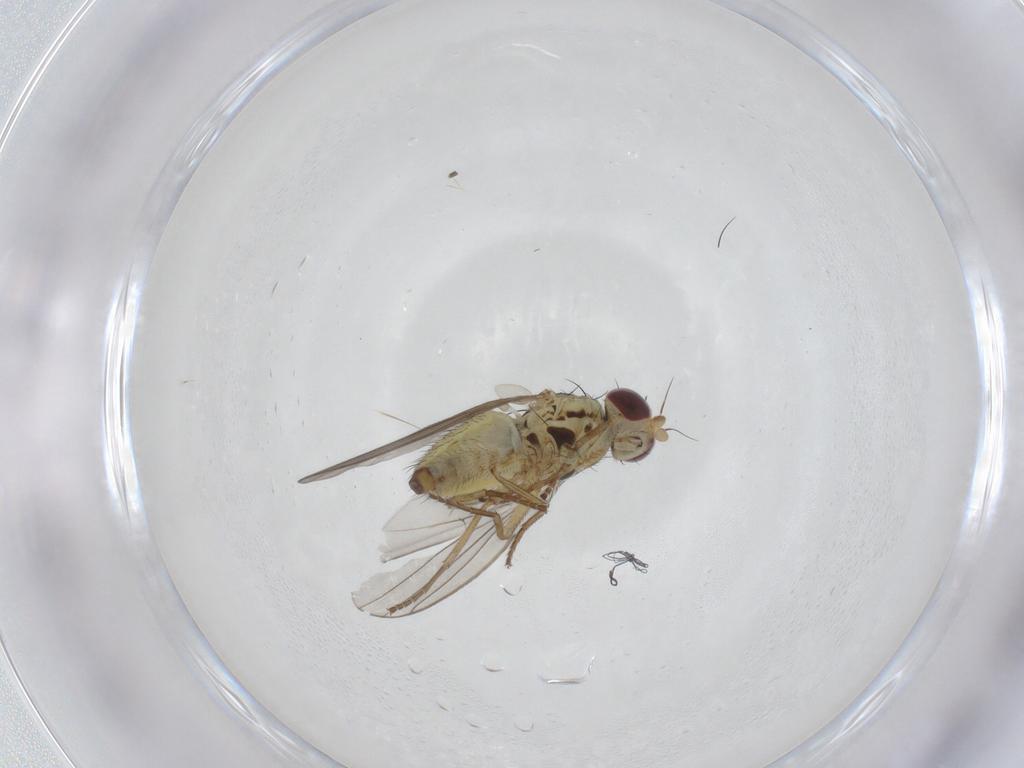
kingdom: Animalia
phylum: Arthropoda
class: Insecta
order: Diptera
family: Agromyzidae
